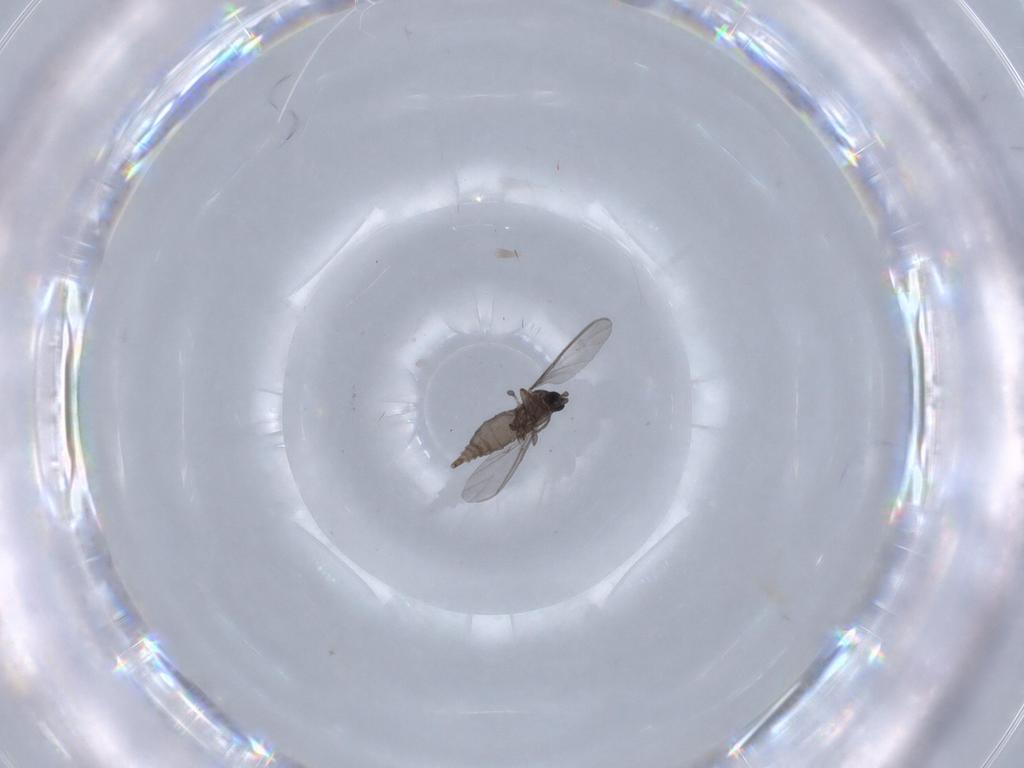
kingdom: Animalia
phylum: Arthropoda
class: Insecta
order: Diptera
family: Sciaridae
